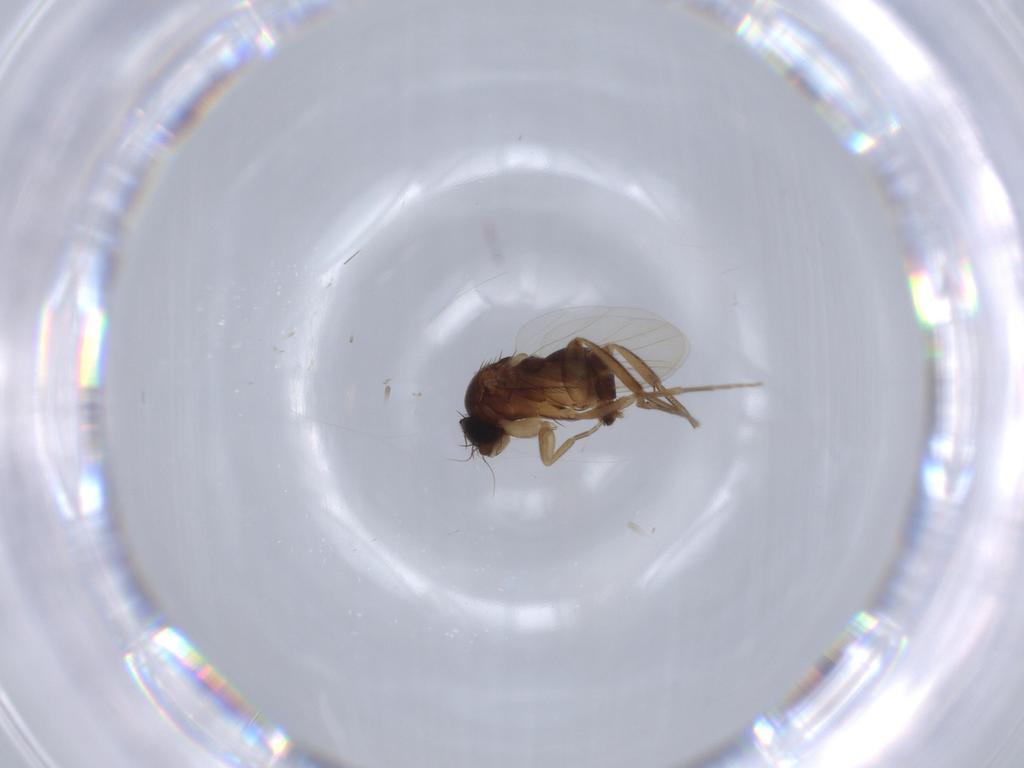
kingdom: Animalia
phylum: Arthropoda
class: Insecta
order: Diptera
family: Phoridae
